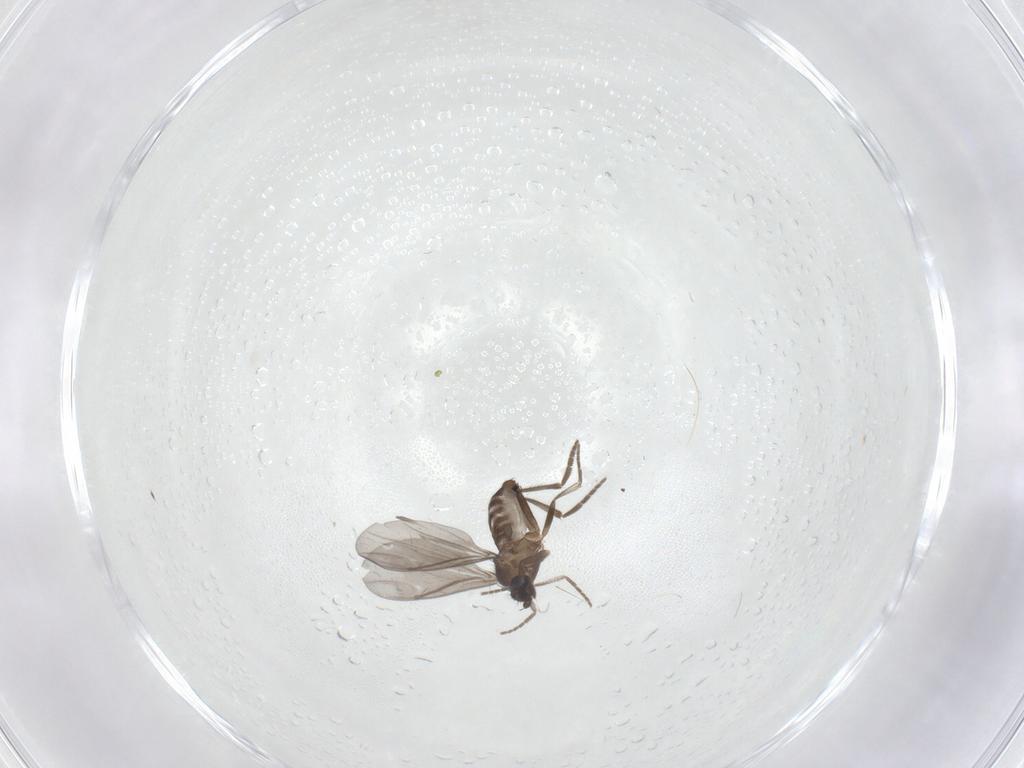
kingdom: Animalia
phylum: Arthropoda
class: Insecta
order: Diptera
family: Phoridae
